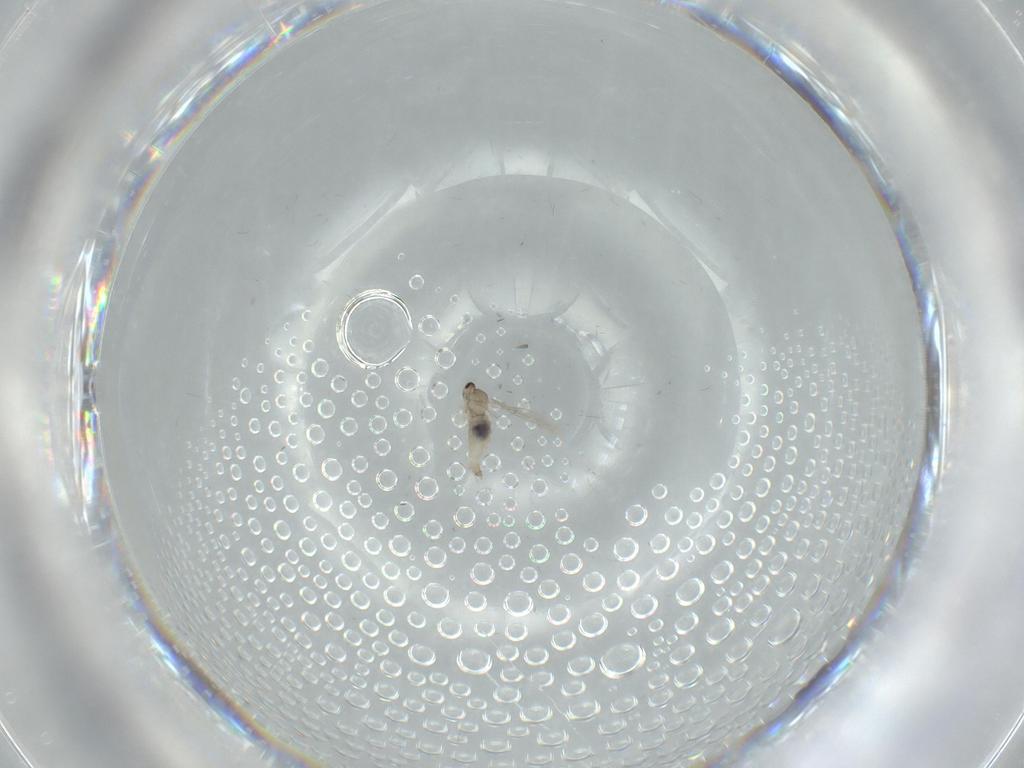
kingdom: Animalia
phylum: Arthropoda
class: Insecta
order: Diptera
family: Cecidomyiidae
